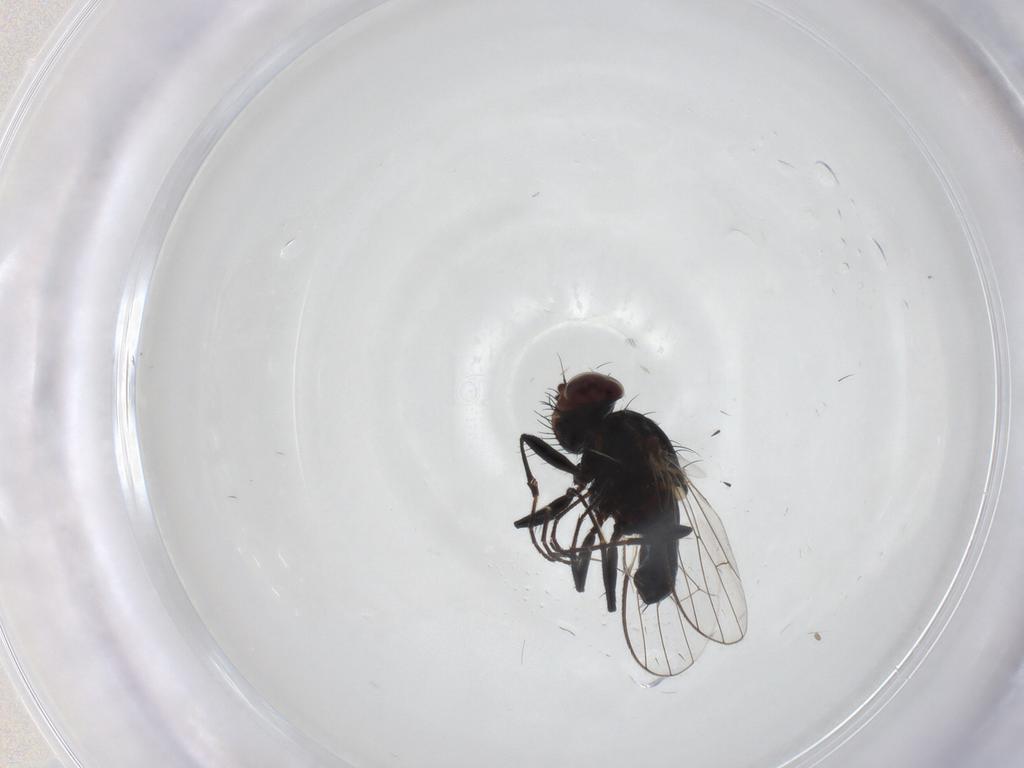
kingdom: Animalia
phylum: Arthropoda
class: Insecta
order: Diptera
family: Carnidae
